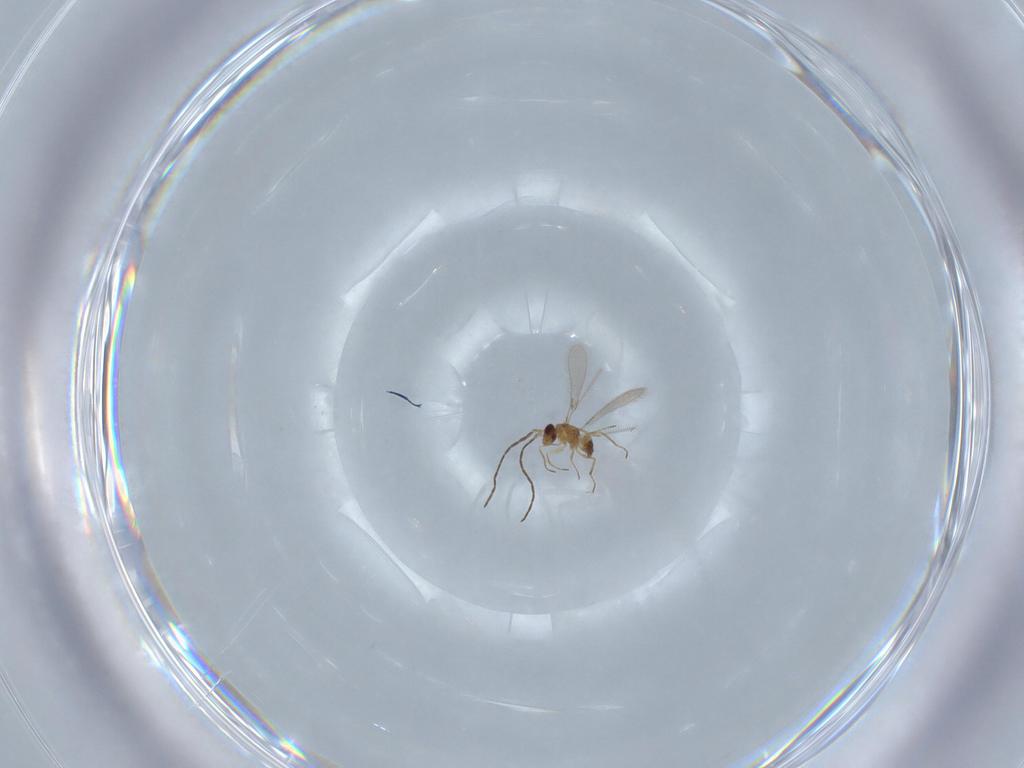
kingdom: Animalia
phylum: Arthropoda
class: Insecta
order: Hymenoptera
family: Mymaridae
